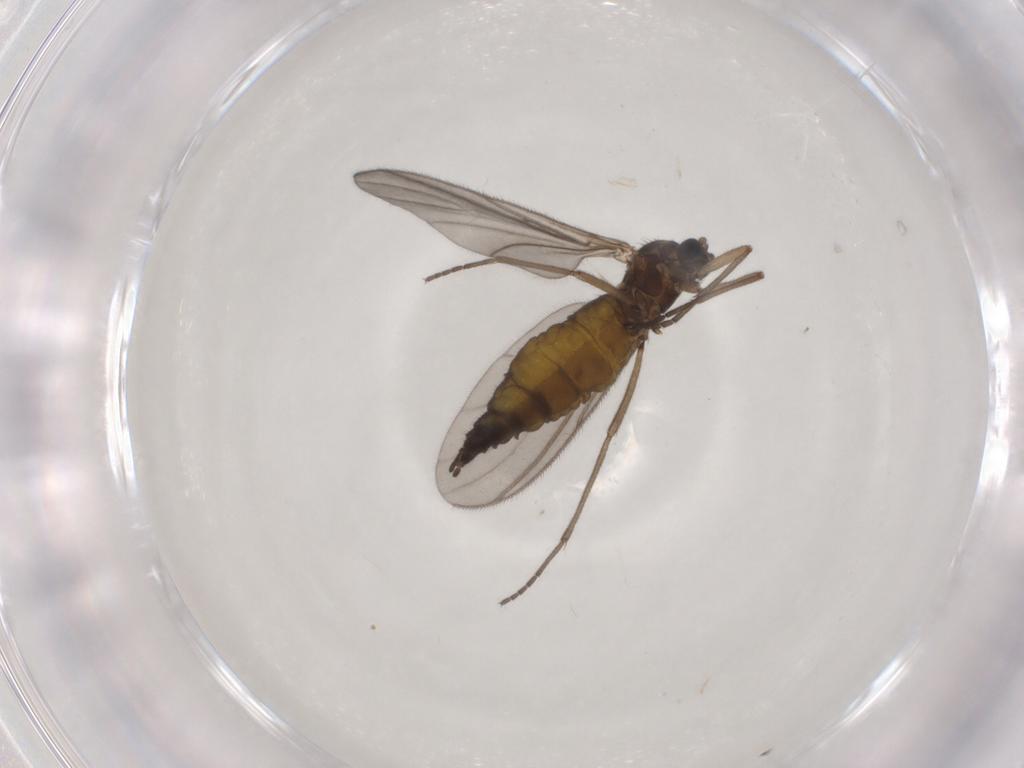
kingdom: Animalia
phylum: Arthropoda
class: Insecta
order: Diptera
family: Sciaridae
